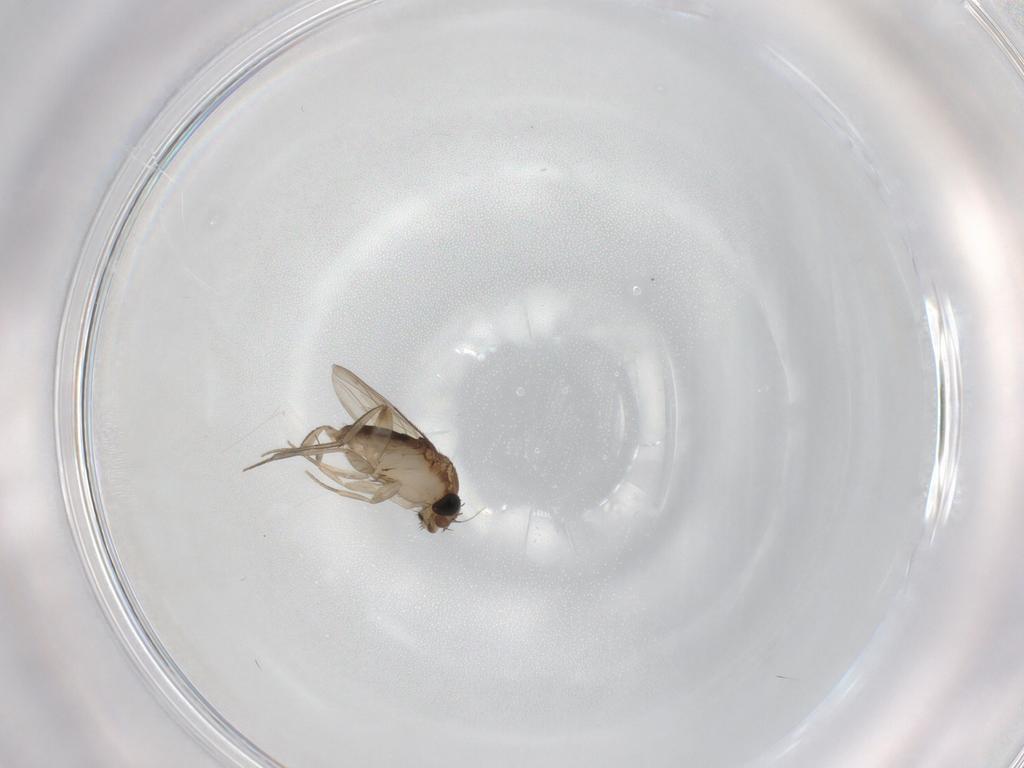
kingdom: Animalia
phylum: Arthropoda
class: Insecta
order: Diptera
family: Phoridae
